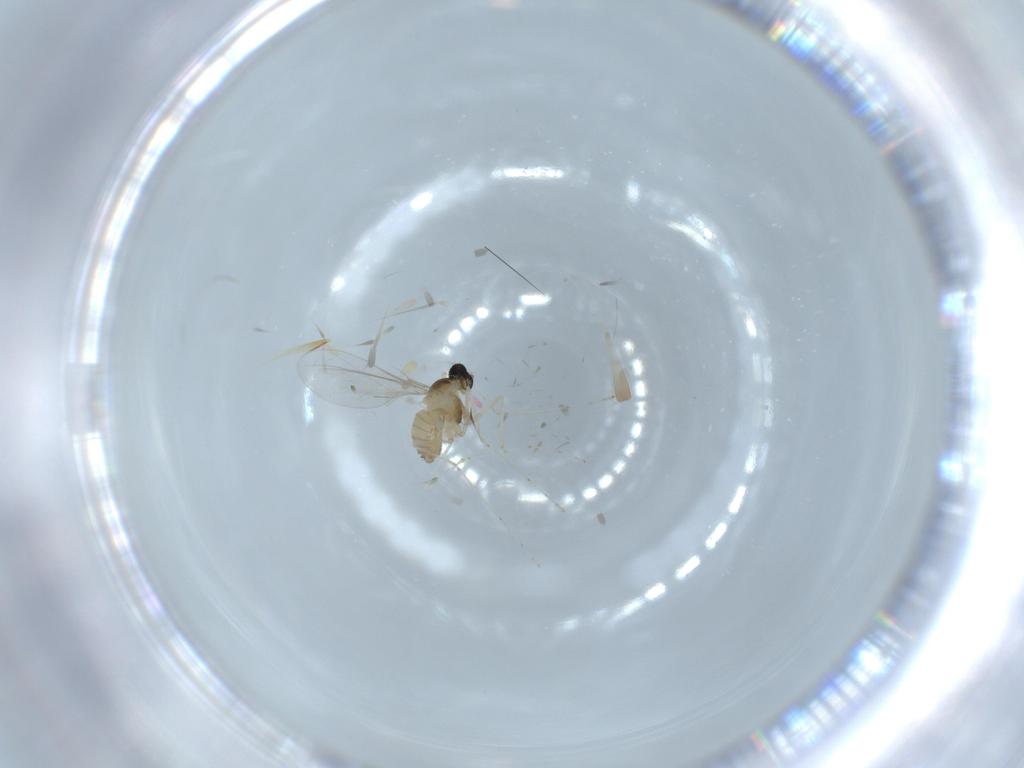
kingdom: Animalia
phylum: Arthropoda
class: Insecta
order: Diptera
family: Cecidomyiidae
